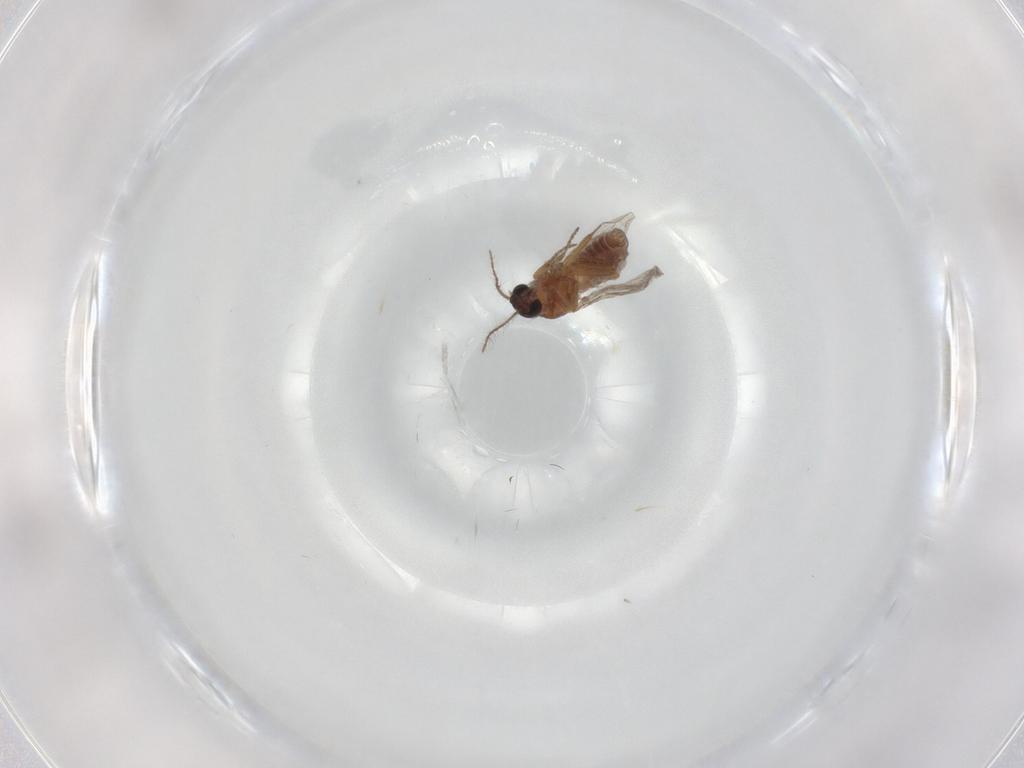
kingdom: Animalia
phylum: Arthropoda
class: Insecta
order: Diptera
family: Ceratopogonidae
